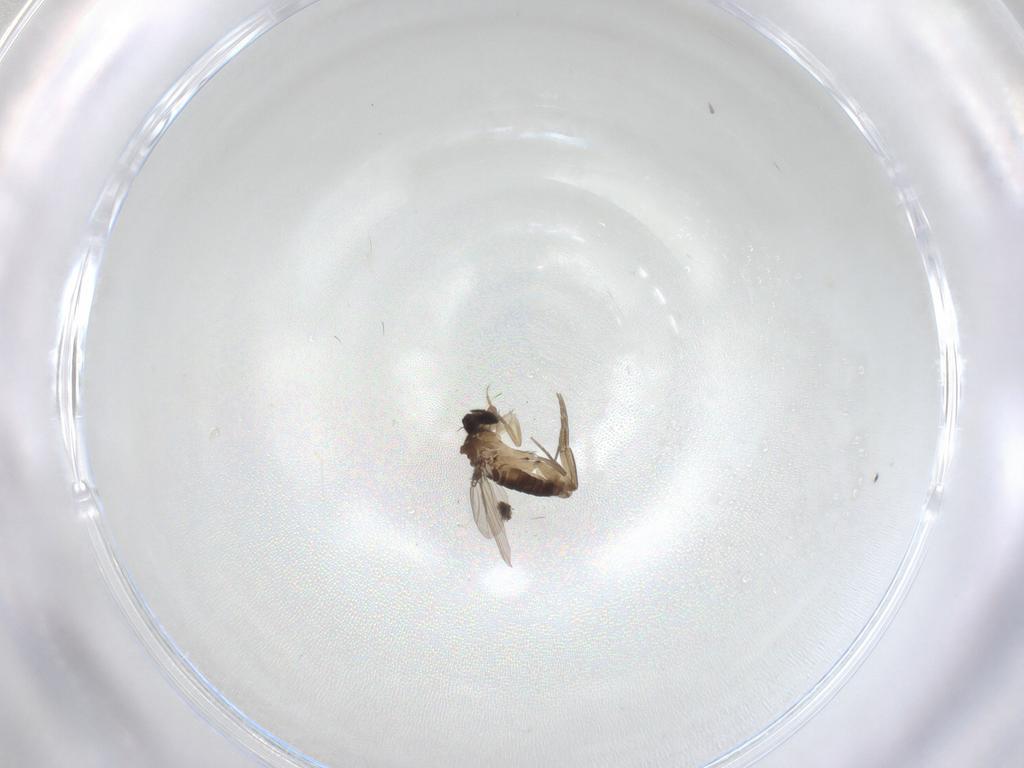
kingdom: Animalia
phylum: Arthropoda
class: Insecta
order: Diptera
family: Phoridae
